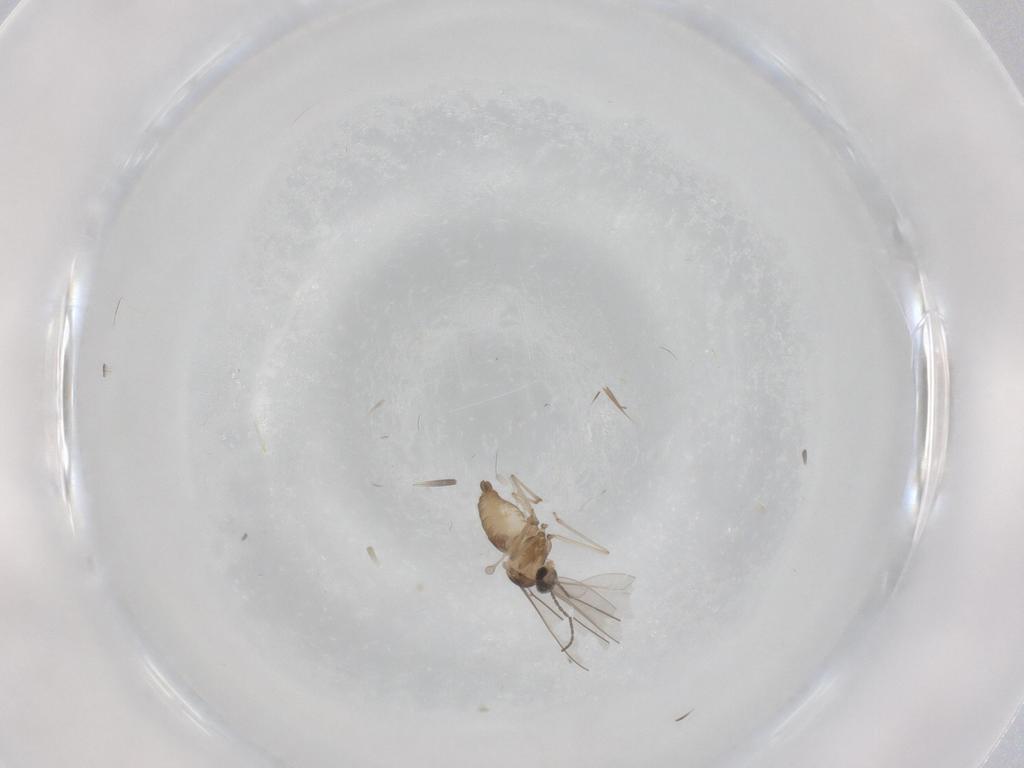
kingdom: Animalia
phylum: Arthropoda
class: Insecta
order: Diptera
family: Cecidomyiidae
